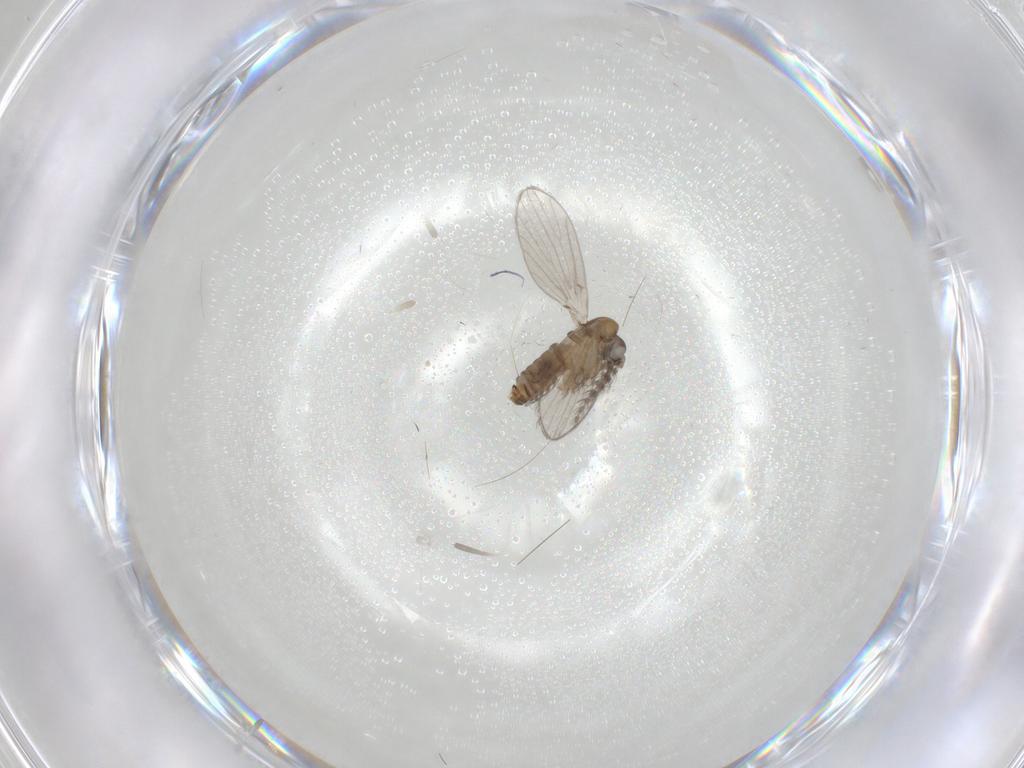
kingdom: Animalia
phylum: Arthropoda
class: Insecta
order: Diptera
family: Psychodidae
